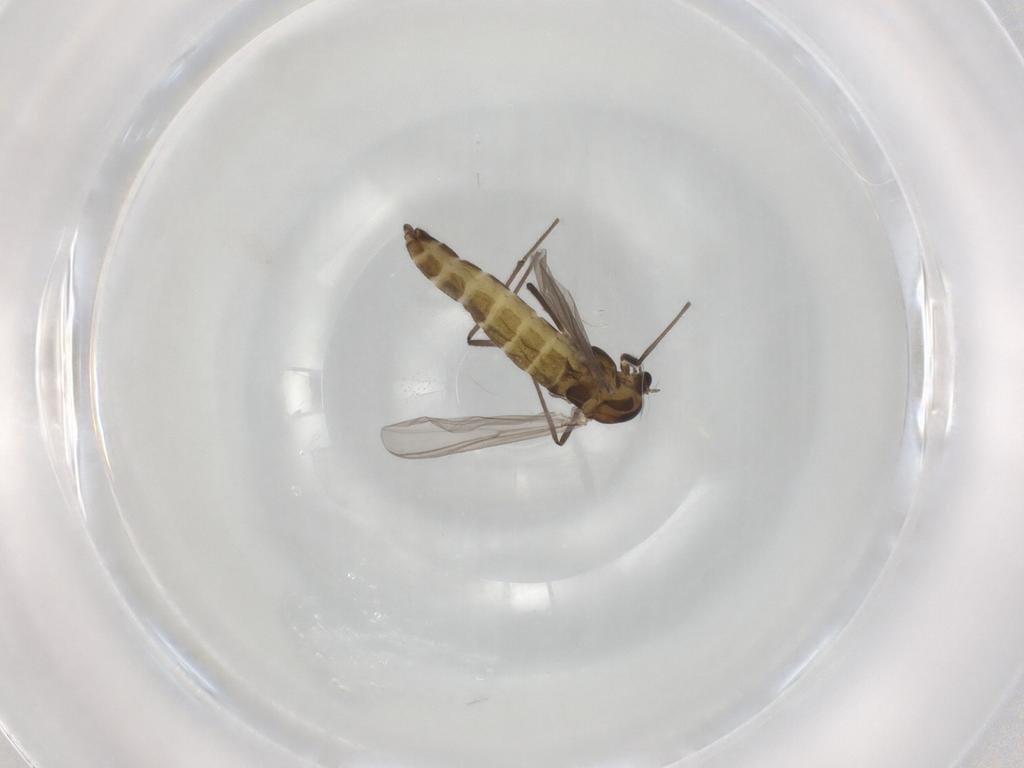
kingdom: Animalia
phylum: Arthropoda
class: Insecta
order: Diptera
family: Chironomidae
